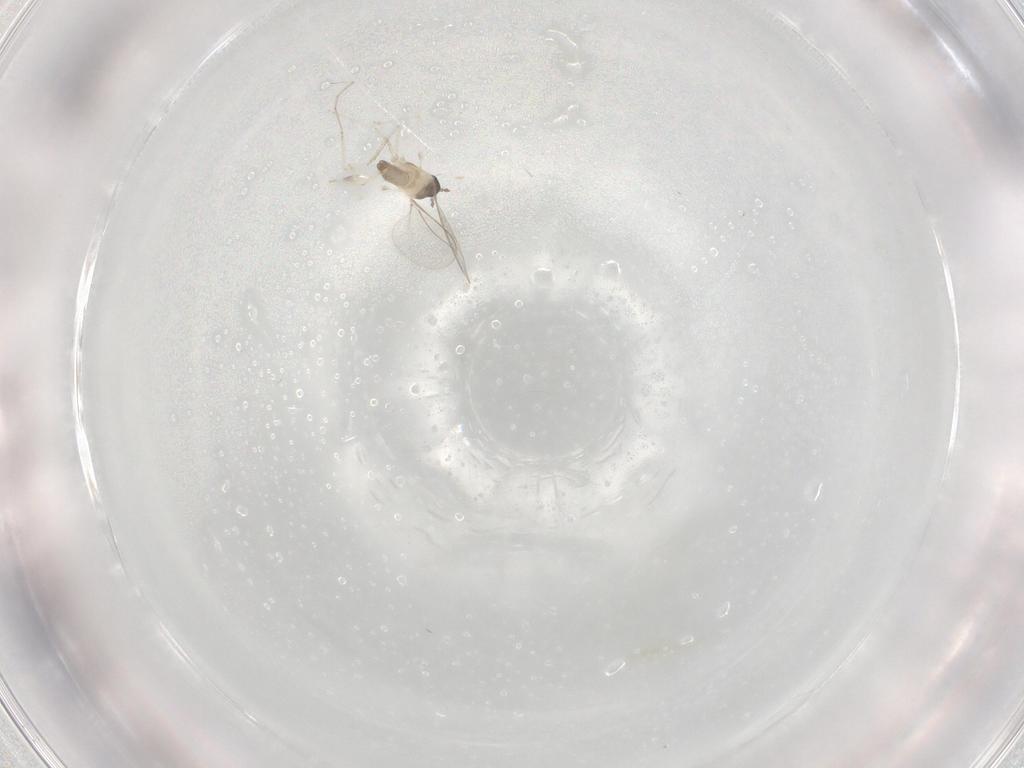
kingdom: Animalia
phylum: Arthropoda
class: Insecta
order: Diptera
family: Cecidomyiidae
